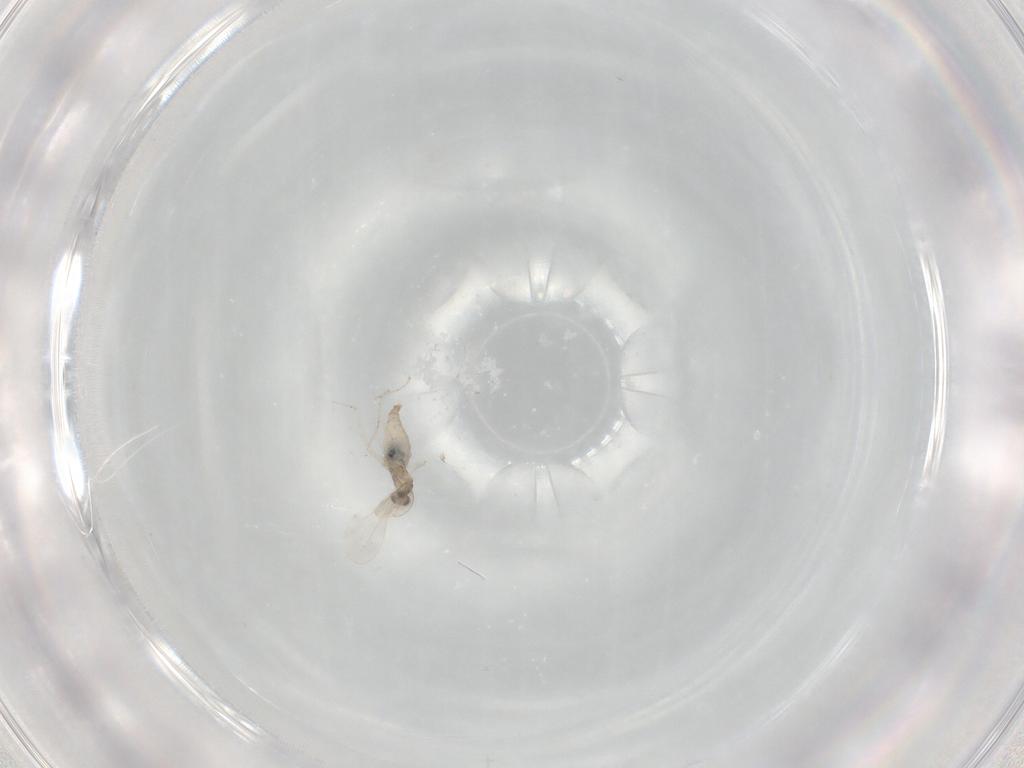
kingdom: Animalia
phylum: Arthropoda
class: Insecta
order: Diptera
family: Cecidomyiidae
